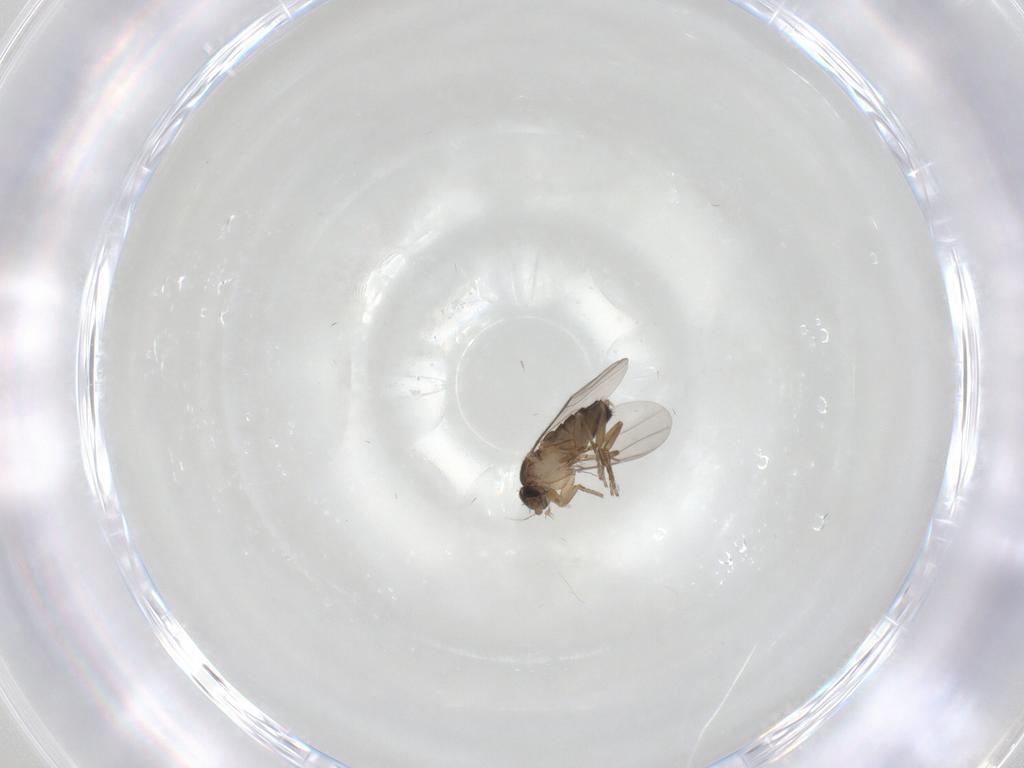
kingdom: Animalia
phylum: Arthropoda
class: Insecta
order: Diptera
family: Phoridae
